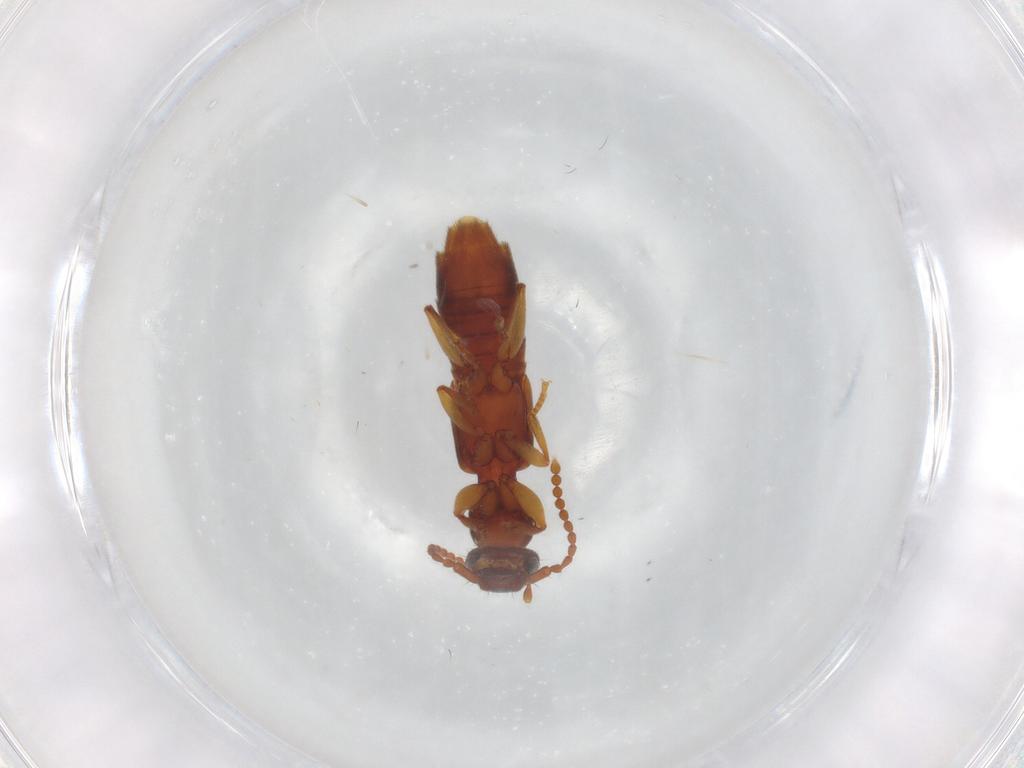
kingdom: Animalia
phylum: Arthropoda
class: Insecta
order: Coleoptera
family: Staphylinidae
